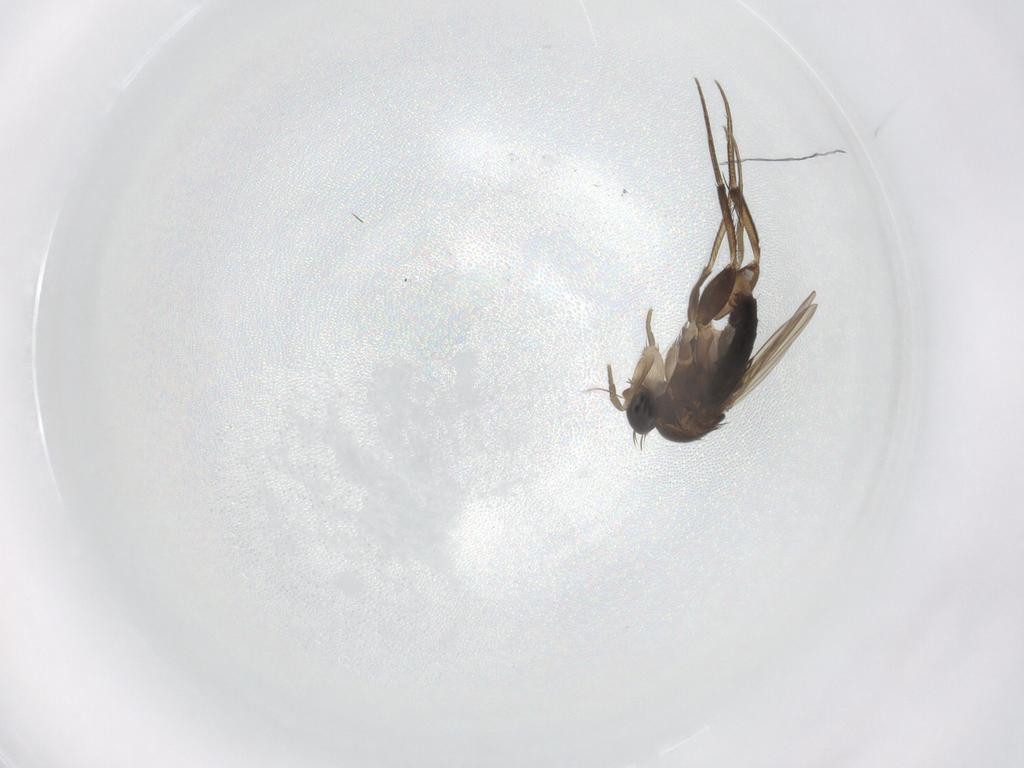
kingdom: Animalia
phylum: Arthropoda
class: Insecta
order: Diptera
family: Phoridae
